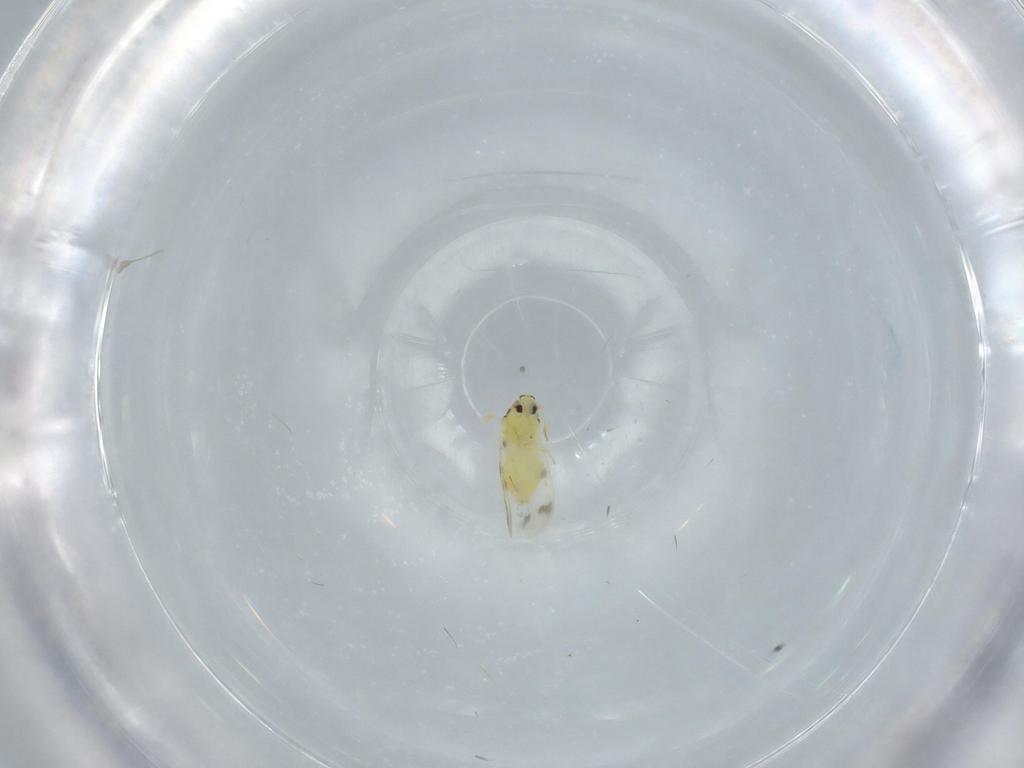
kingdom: Animalia
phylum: Arthropoda
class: Insecta
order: Hemiptera
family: Aleyrodidae
